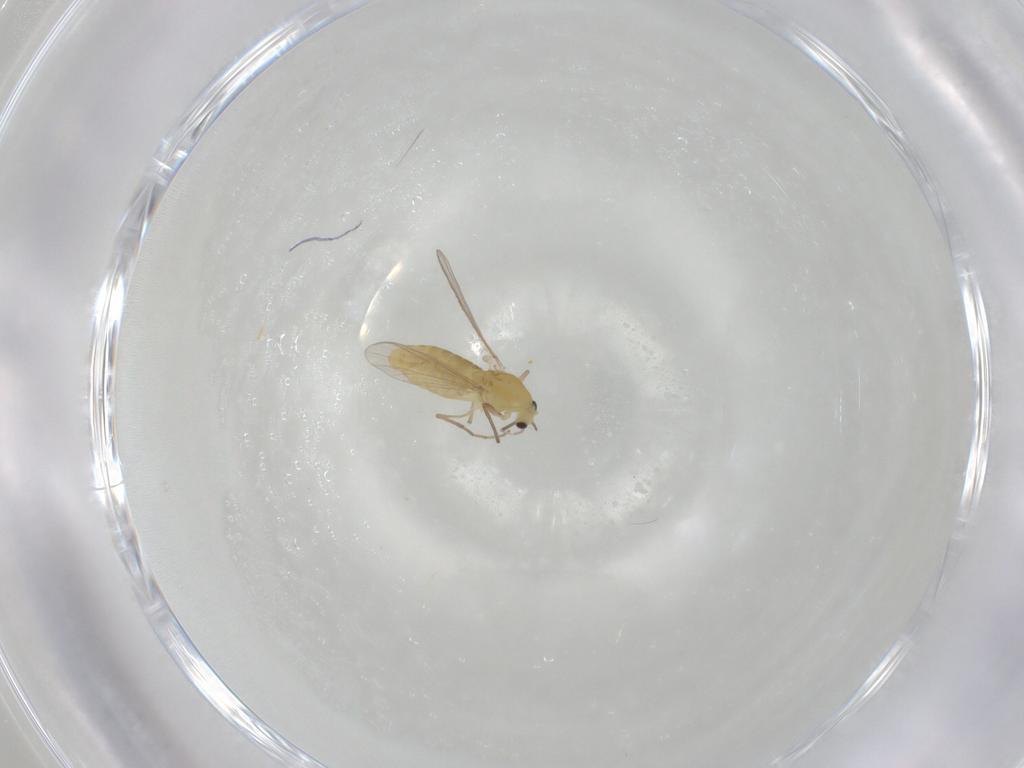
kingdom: Animalia
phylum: Arthropoda
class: Insecta
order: Diptera
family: Chironomidae
